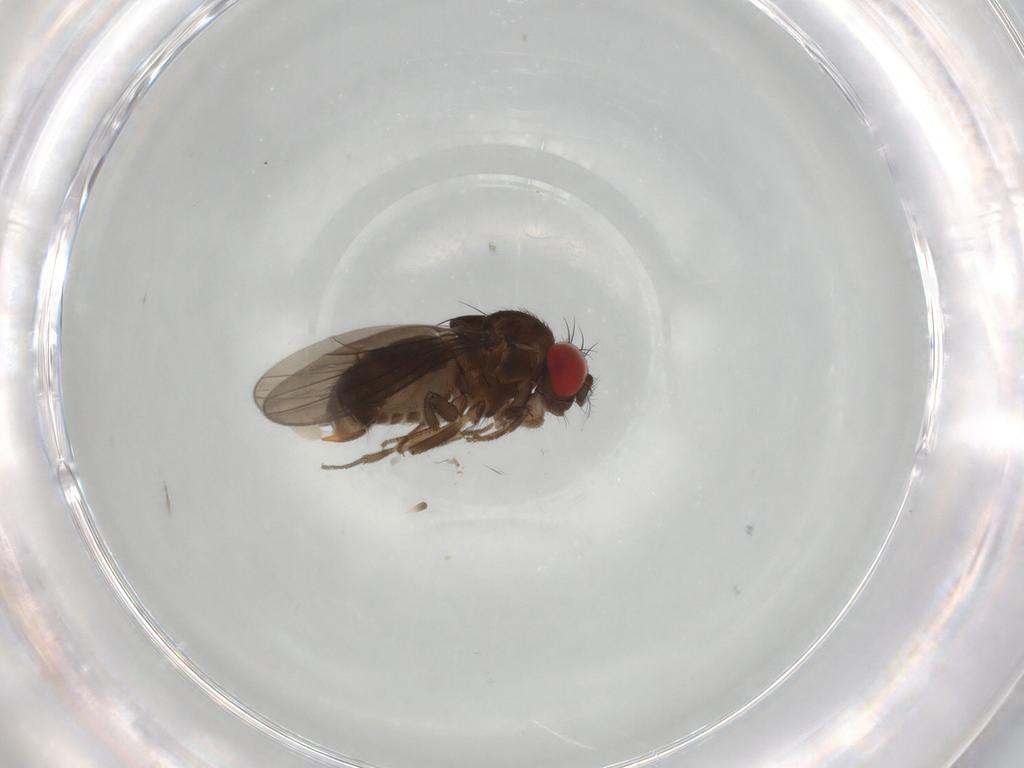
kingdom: Animalia
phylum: Arthropoda
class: Insecta
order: Diptera
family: Drosophilidae
